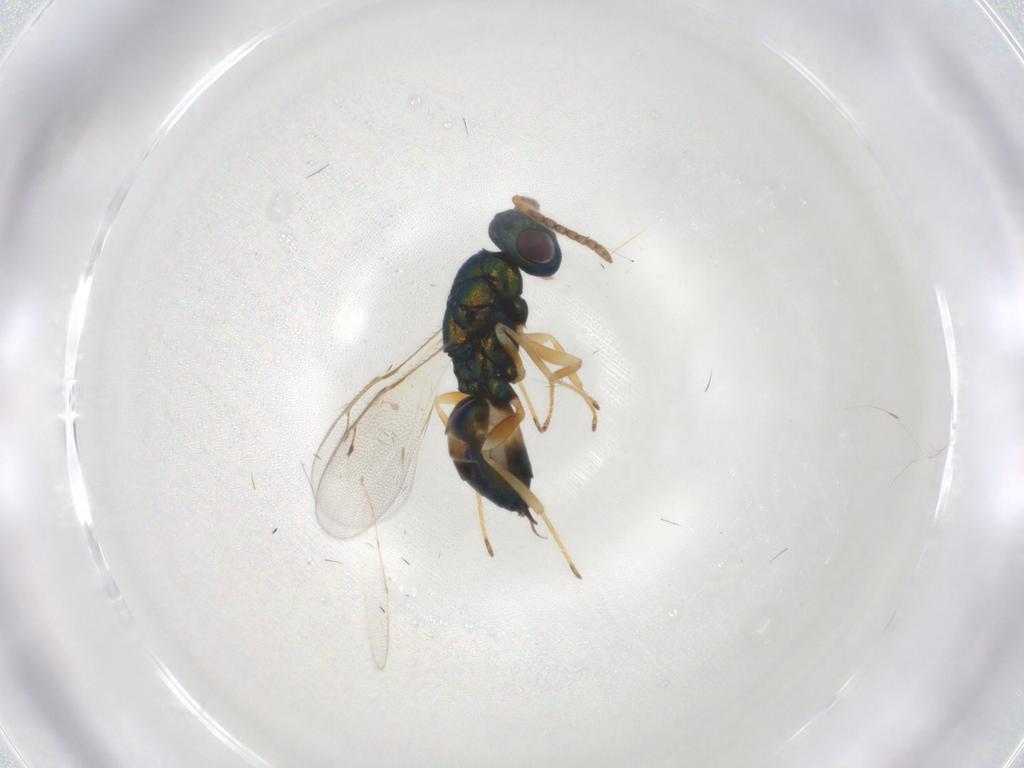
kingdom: Animalia
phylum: Arthropoda
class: Insecta
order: Hymenoptera
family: Pteromalidae
